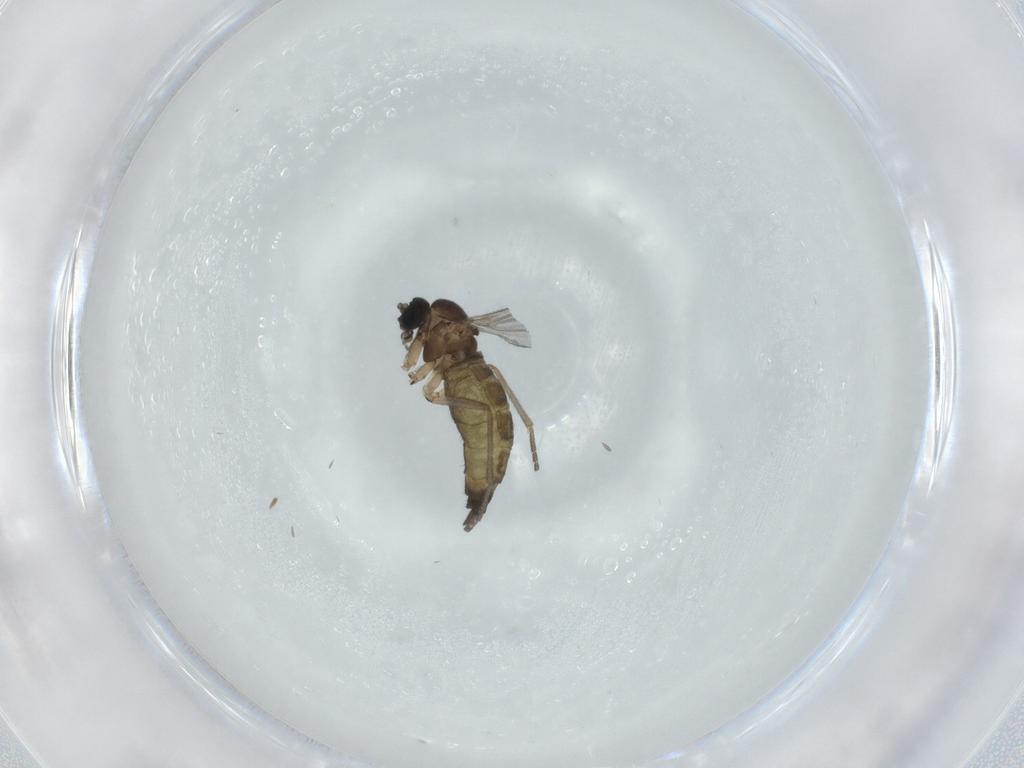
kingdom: Animalia
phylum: Arthropoda
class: Insecta
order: Diptera
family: Sciaridae
